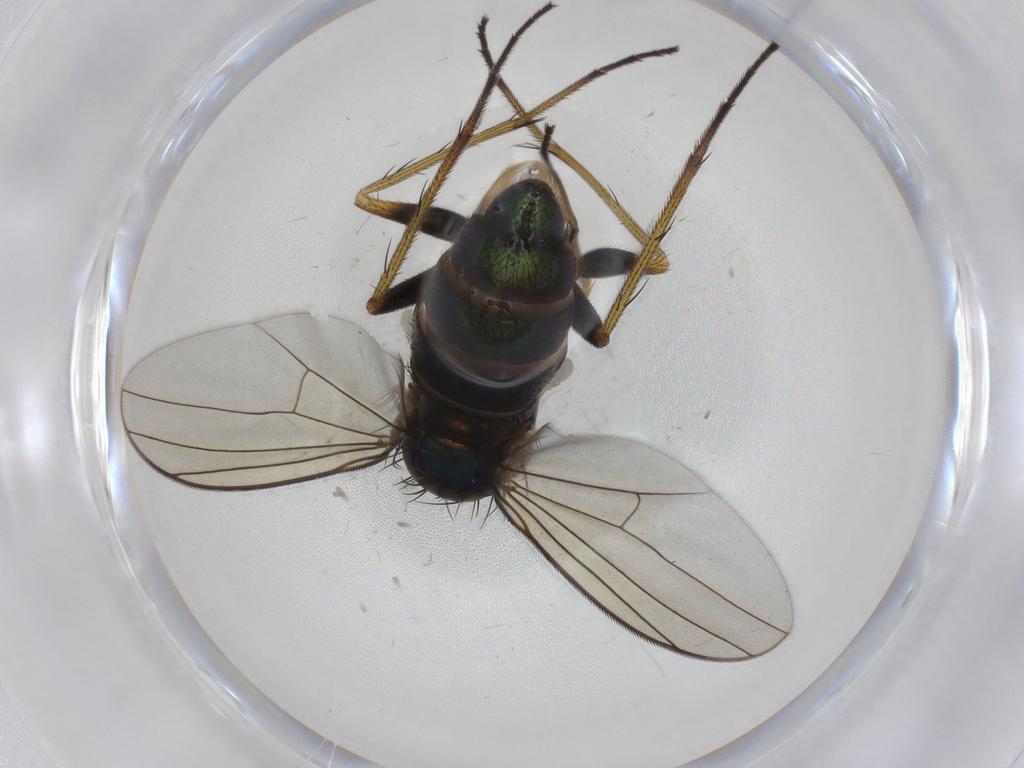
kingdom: Animalia
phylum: Arthropoda
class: Insecta
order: Diptera
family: Dolichopodidae
